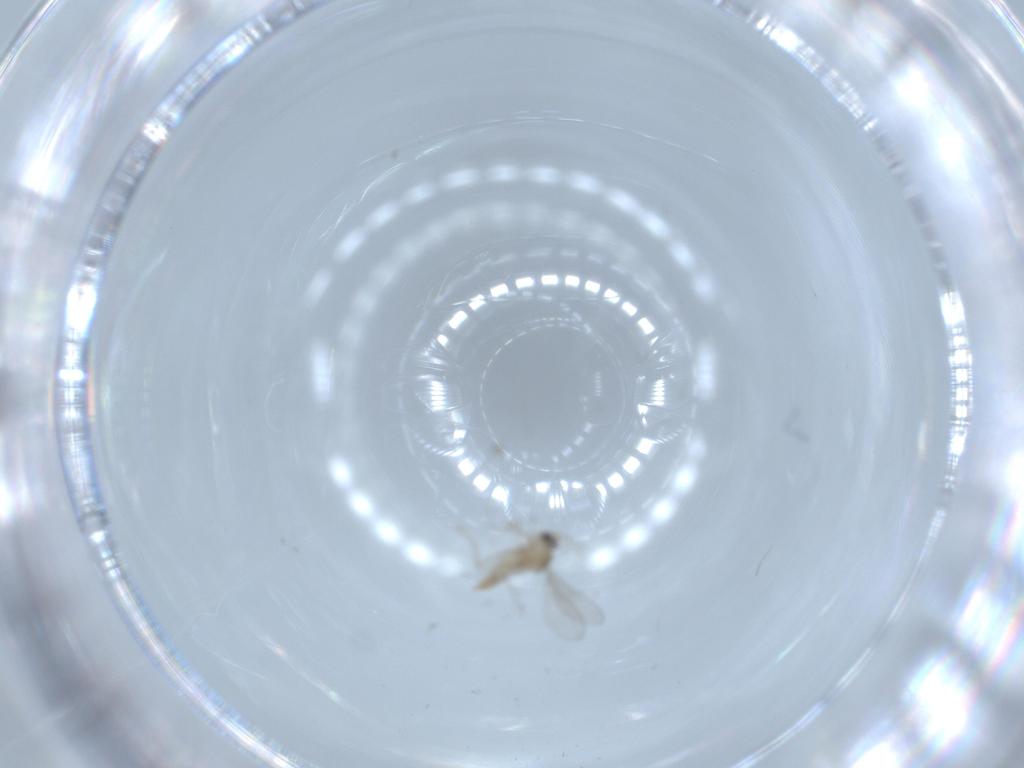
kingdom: Animalia
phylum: Arthropoda
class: Insecta
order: Diptera
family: Cecidomyiidae
